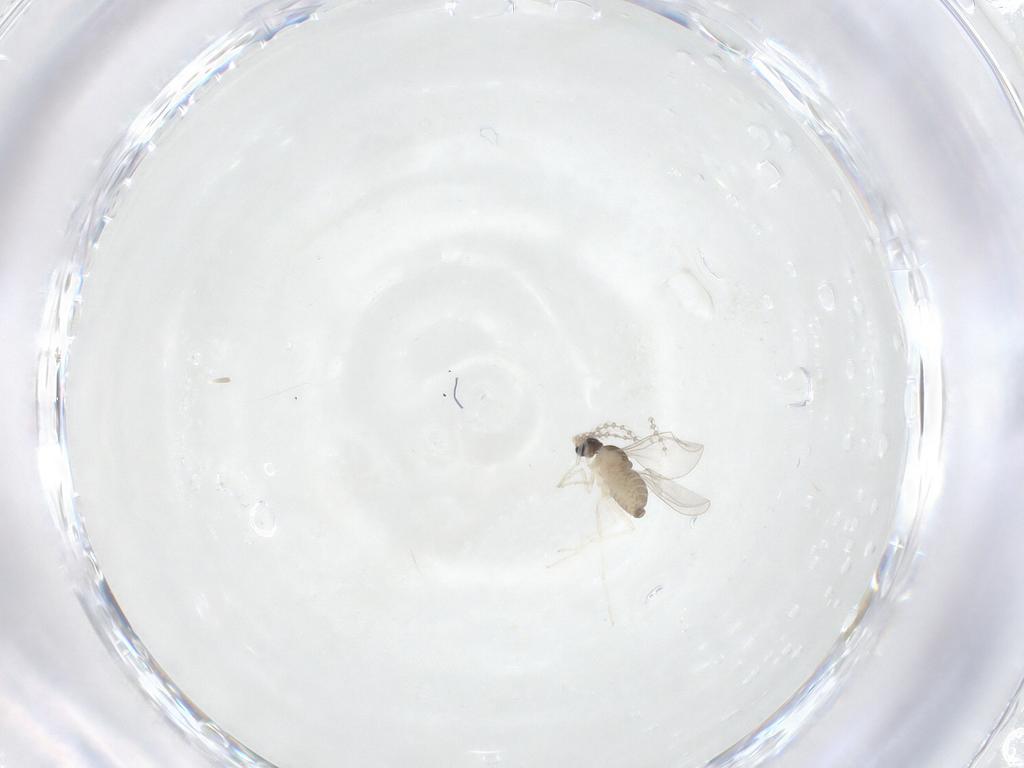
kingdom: Animalia
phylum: Arthropoda
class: Insecta
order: Diptera
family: Cecidomyiidae
